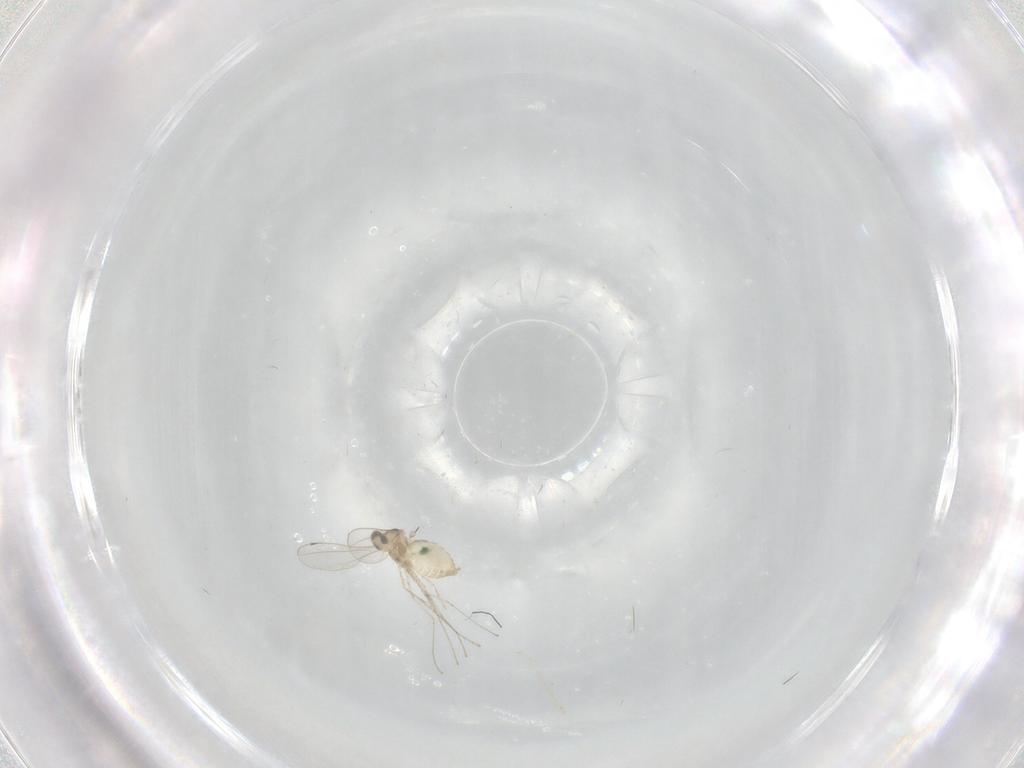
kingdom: Animalia
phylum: Arthropoda
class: Insecta
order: Diptera
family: Cecidomyiidae
